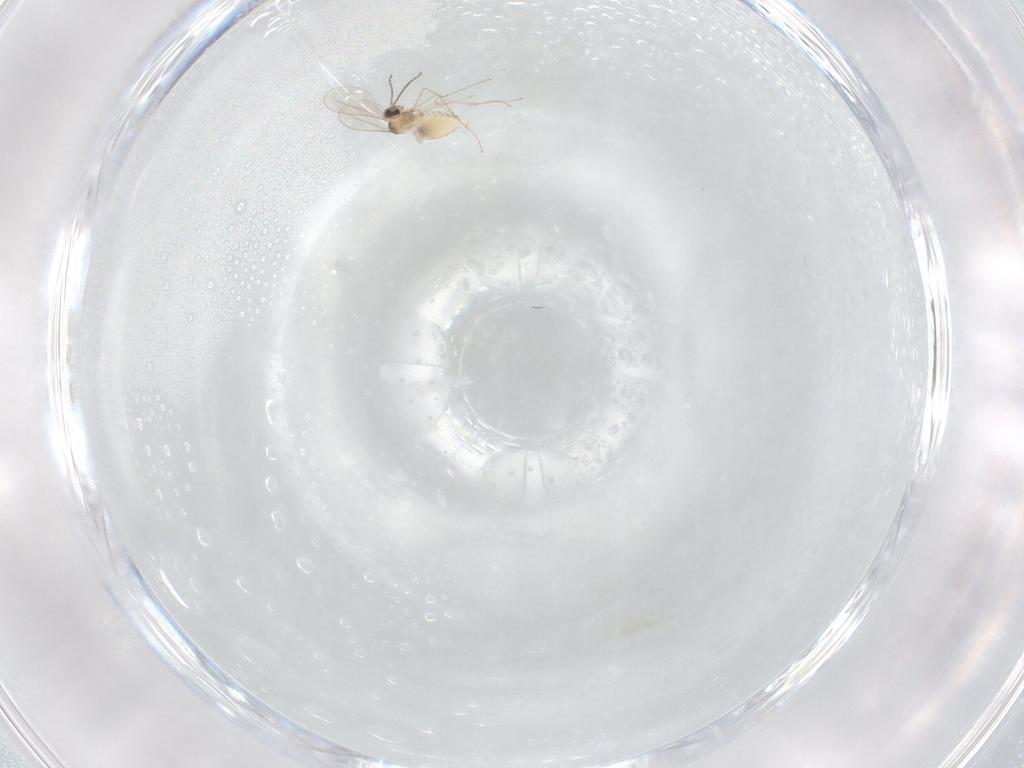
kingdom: Animalia
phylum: Arthropoda
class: Insecta
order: Diptera
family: Cecidomyiidae
